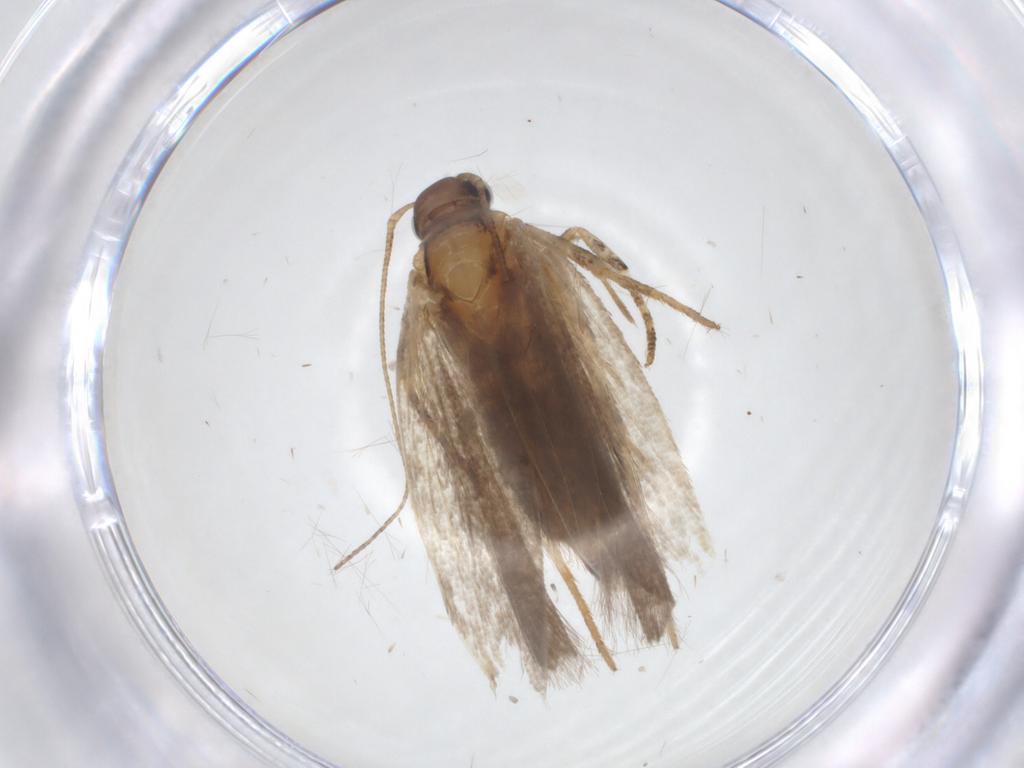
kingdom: Animalia
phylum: Arthropoda
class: Insecta
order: Lepidoptera
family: Gelechiidae
